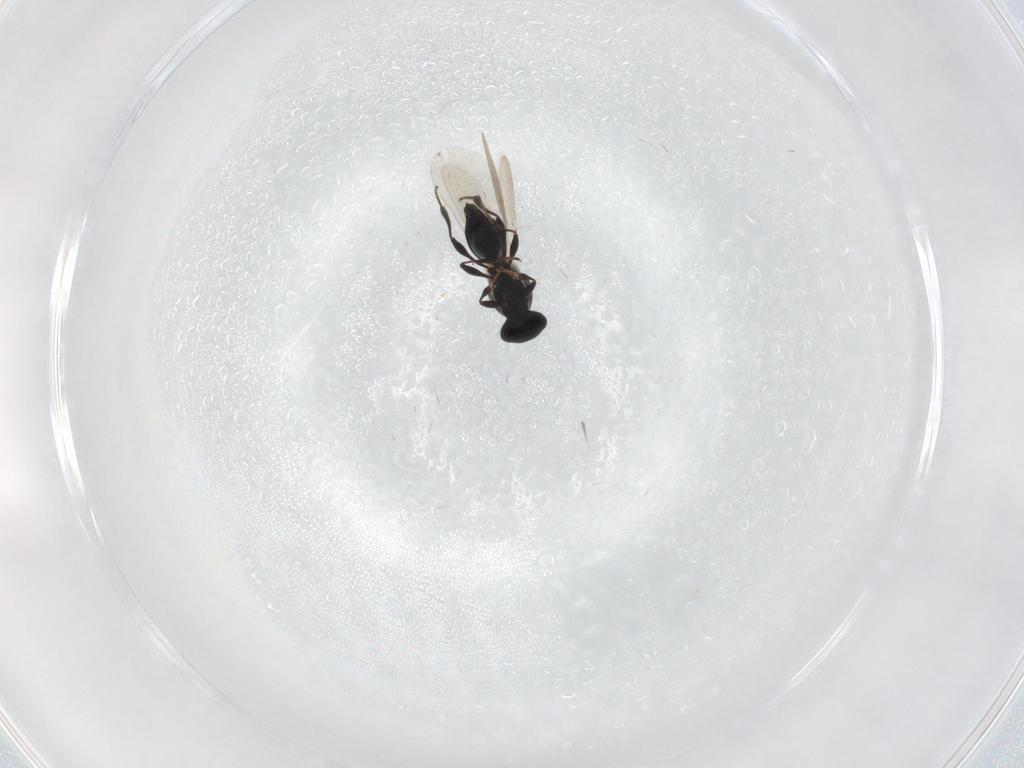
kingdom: Animalia
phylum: Arthropoda
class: Insecta
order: Hymenoptera
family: Platygastridae
